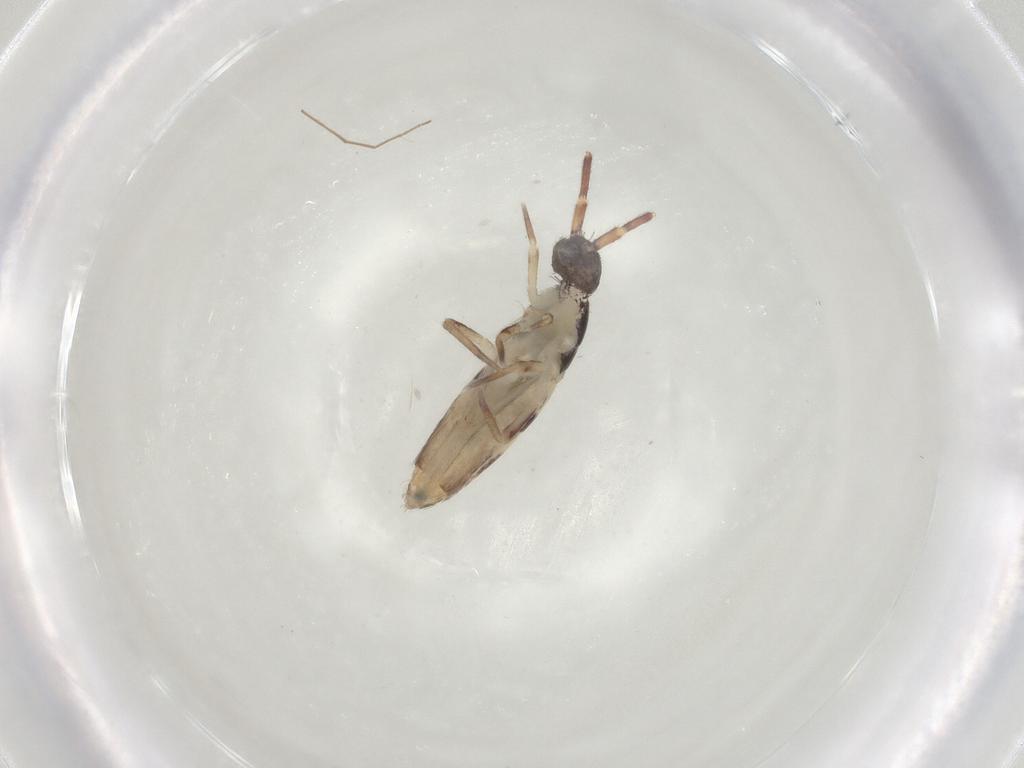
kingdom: Animalia
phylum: Arthropoda
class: Collembola
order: Entomobryomorpha
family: Entomobryidae
